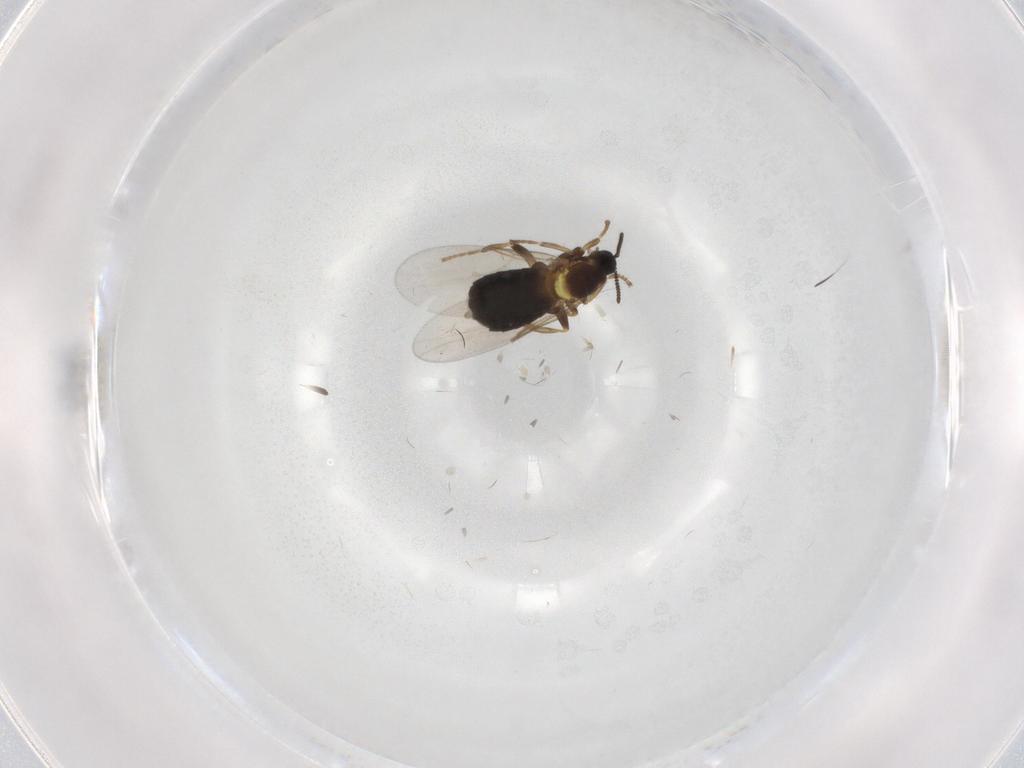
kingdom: Animalia
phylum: Arthropoda
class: Insecta
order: Diptera
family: Scatopsidae
